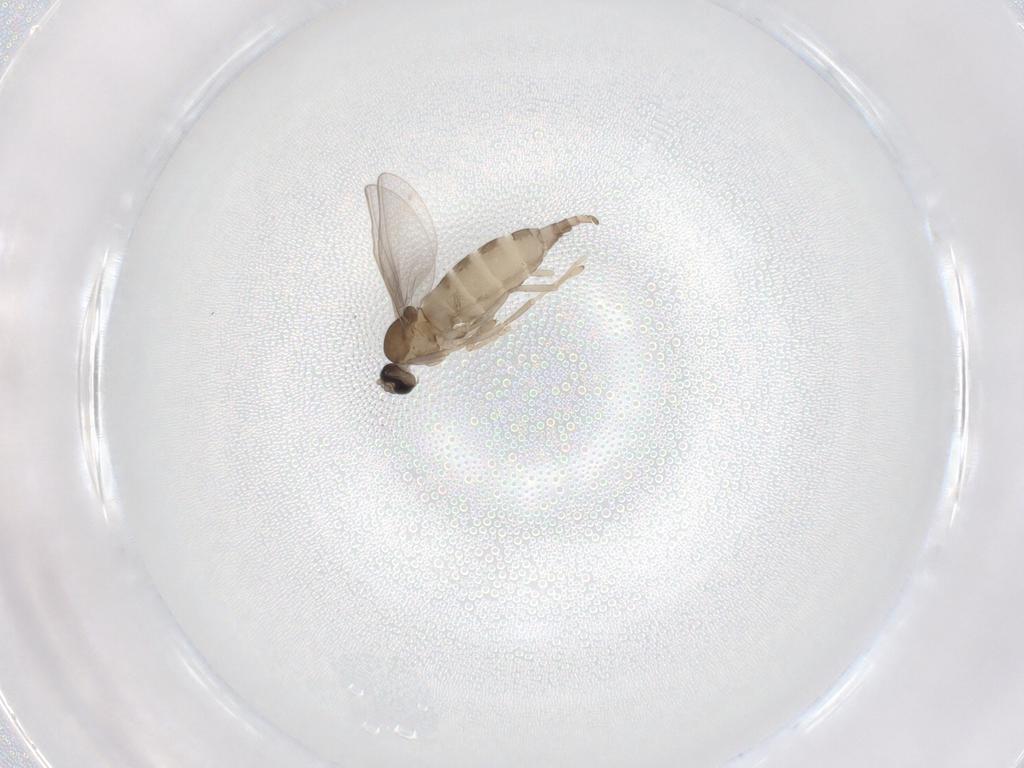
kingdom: Animalia
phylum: Arthropoda
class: Insecta
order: Diptera
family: Cecidomyiidae
